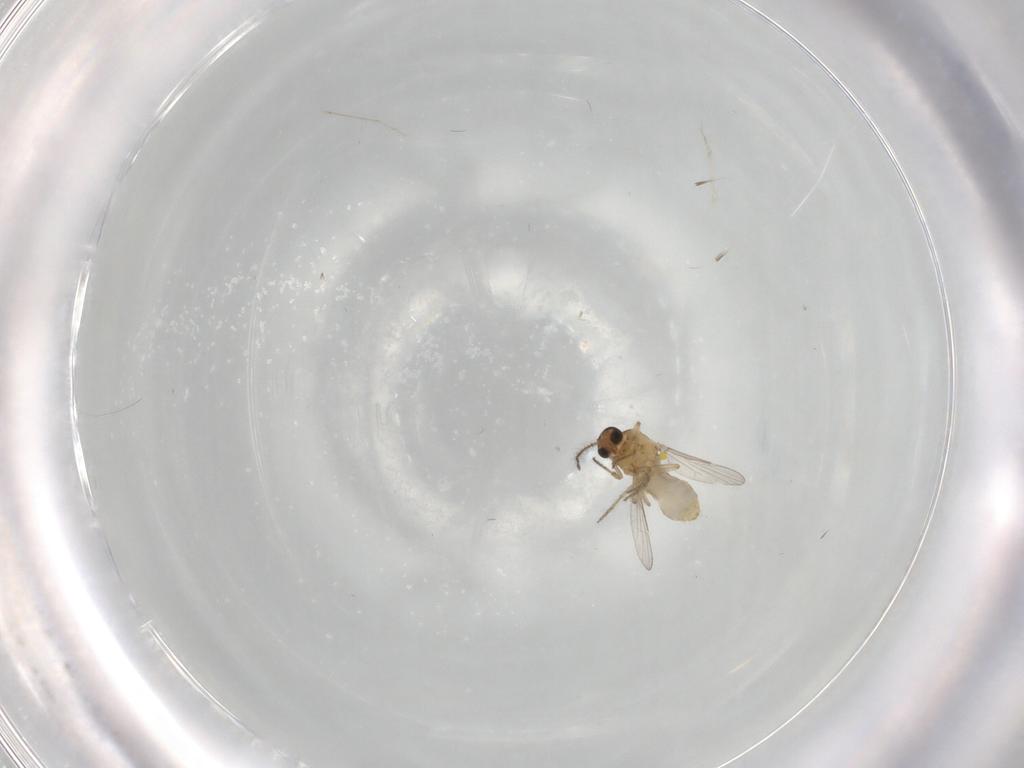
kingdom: Animalia
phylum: Arthropoda
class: Insecta
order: Diptera
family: Ceratopogonidae
